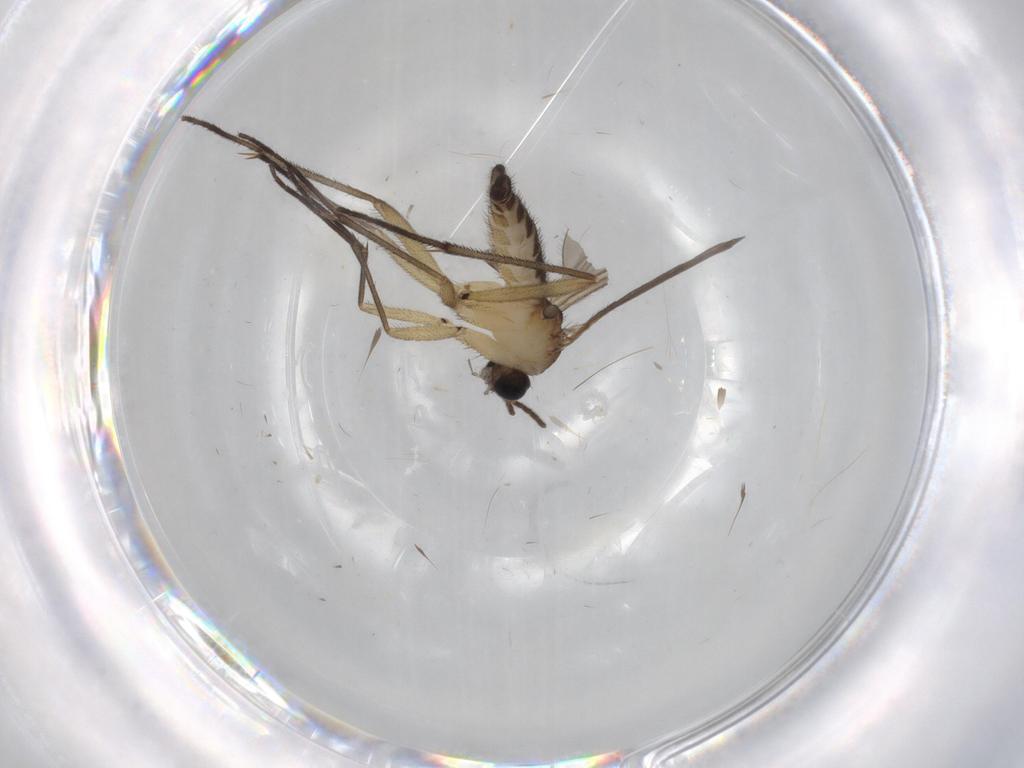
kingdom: Animalia
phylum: Arthropoda
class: Insecta
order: Diptera
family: Sciaridae
